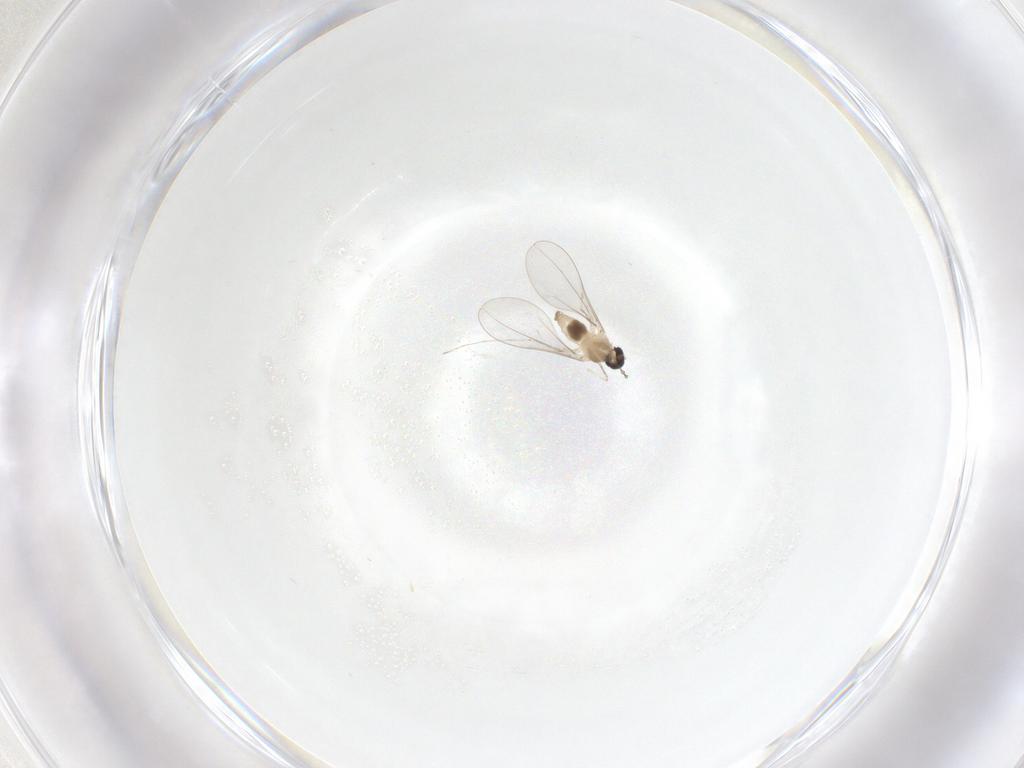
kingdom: Animalia
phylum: Arthropoda
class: Insecta
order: Diptera
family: Cecidomyiidae
